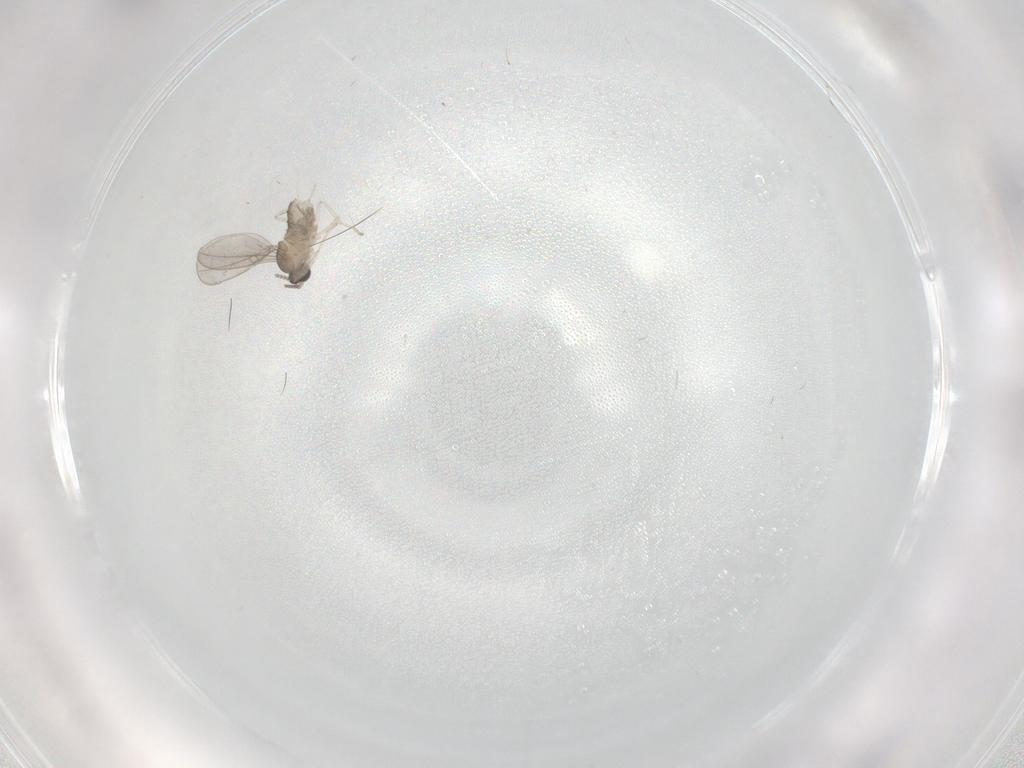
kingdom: Animalia
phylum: Arthropoda
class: Insecta
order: Diptera
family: Cecidomyiidae
